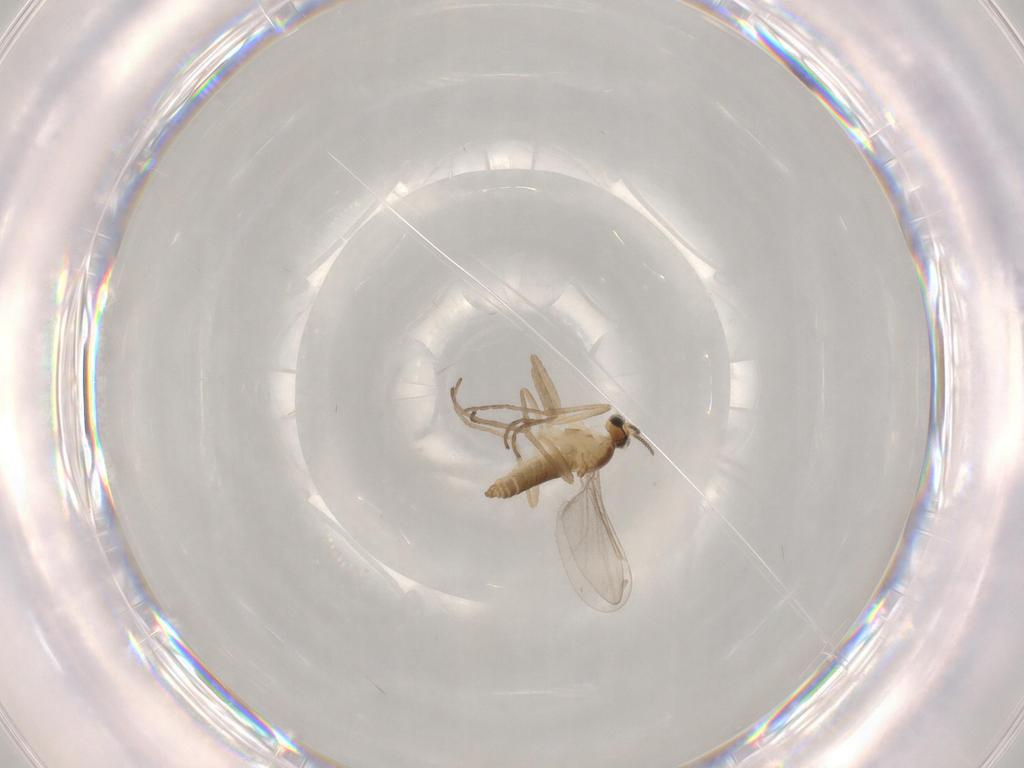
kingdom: Animalia
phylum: Arthropoda
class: Insecta
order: Diptera
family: Cecidomyiidae
